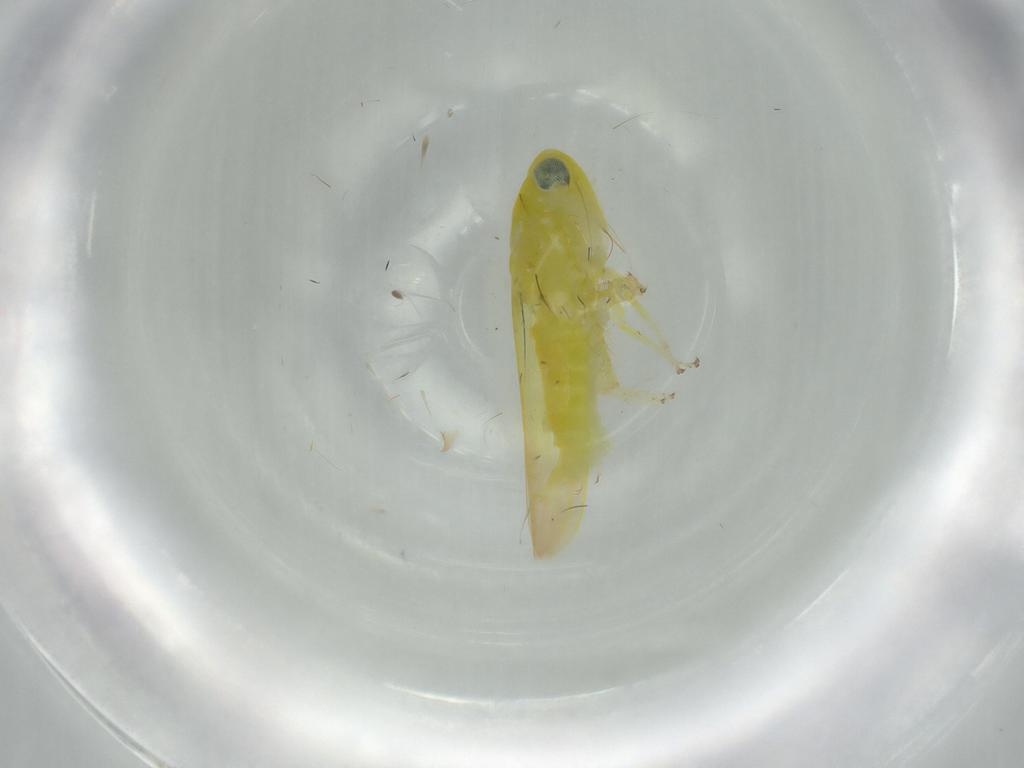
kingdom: Animalia
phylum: Arthropoda
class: Insecta
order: Hemiptera
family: Cicadellidae
